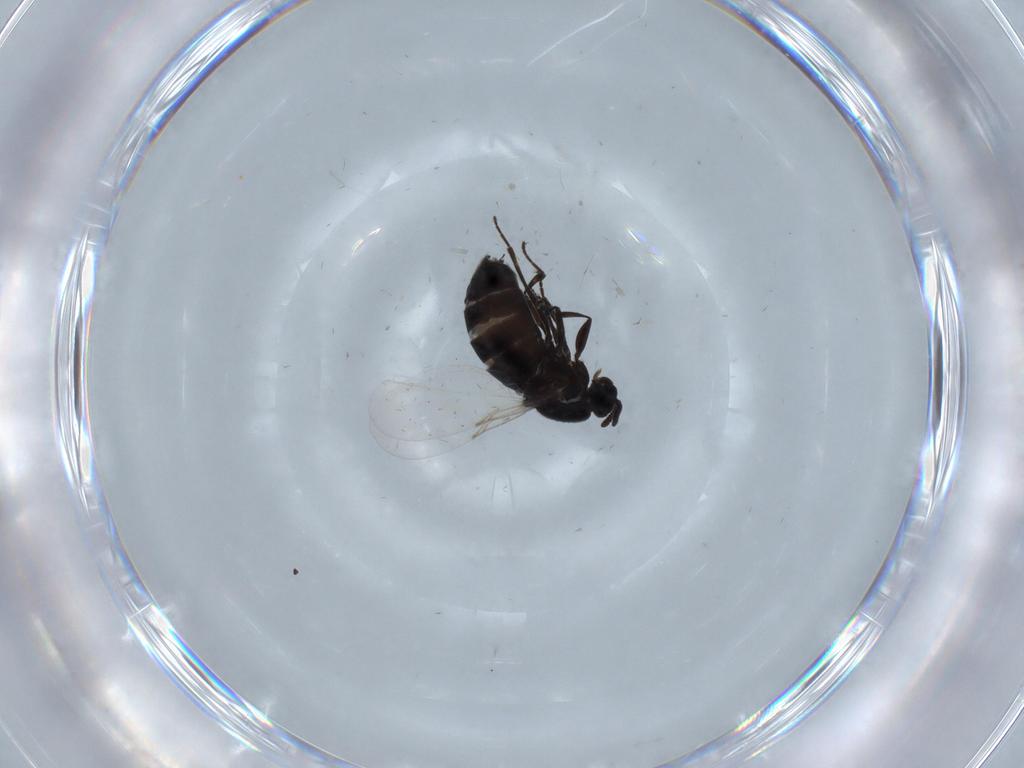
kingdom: Animalia
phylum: Arthropoda
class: Insecta
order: Diptera
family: Scatopsidae
